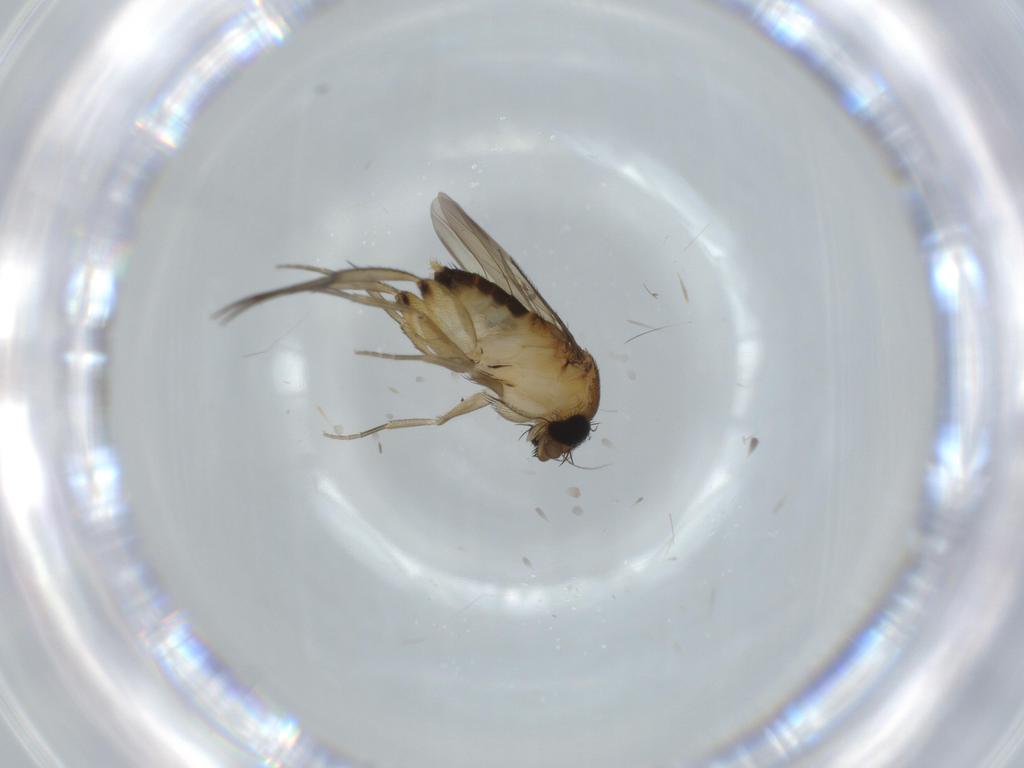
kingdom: Animalia
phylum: Arthropoda
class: Insecta
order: Diptera
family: Phoridae
